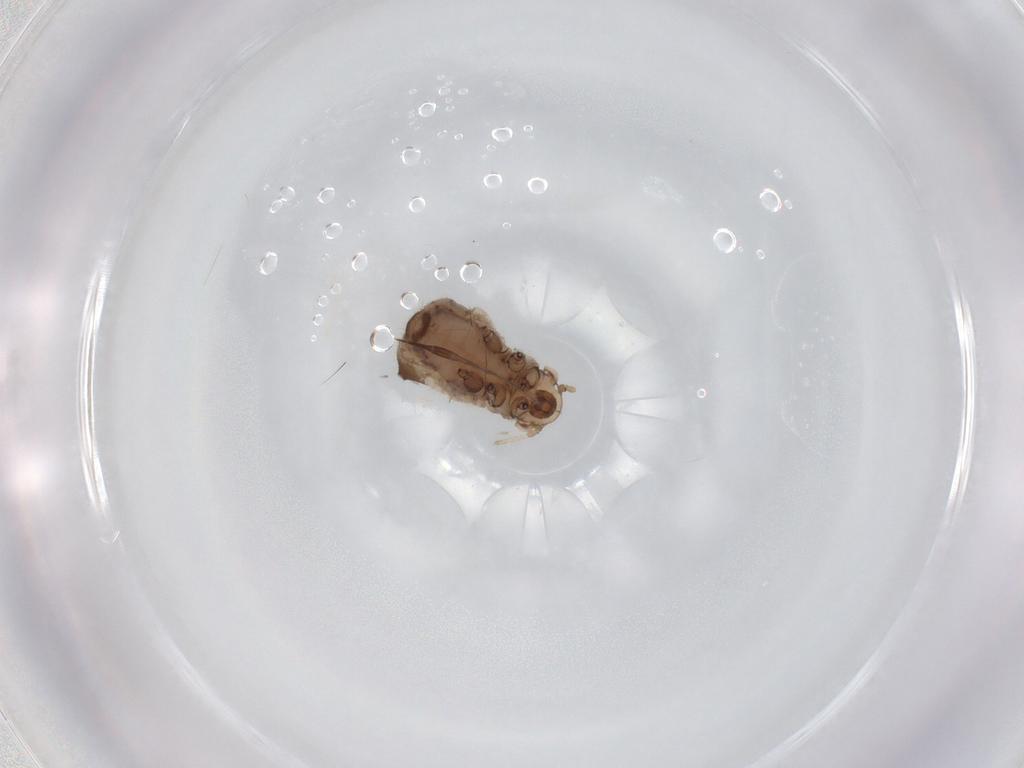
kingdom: Animalia
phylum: Arthropoda
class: Insecta
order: Hemiptera
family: Aphididae
